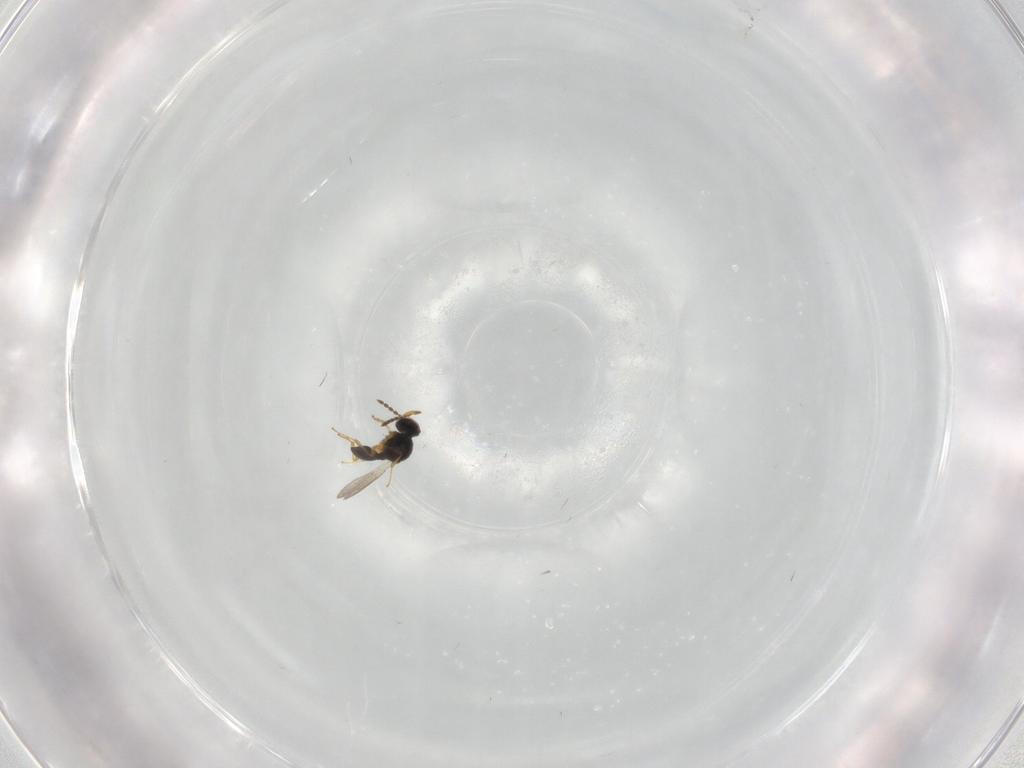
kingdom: Animalia
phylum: Arthropoda
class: Insecta
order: Hymenoptera
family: Platygastridae
